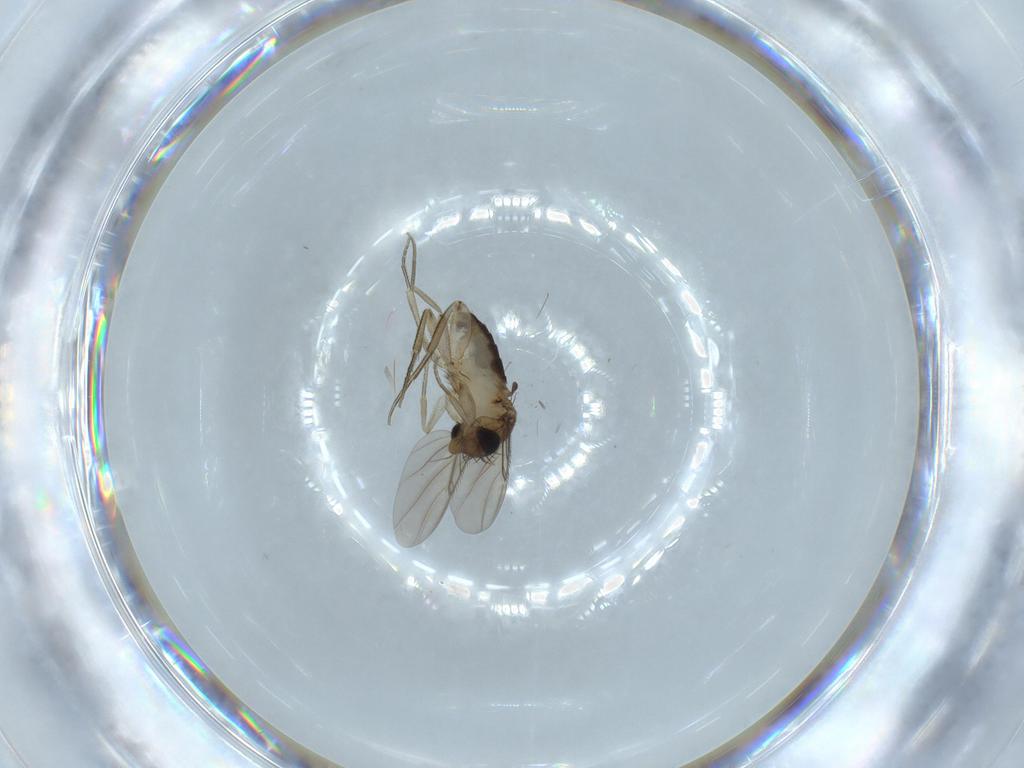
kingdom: Animalia
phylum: Arthropoda
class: Insecta
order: Diptera
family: Phoridae
